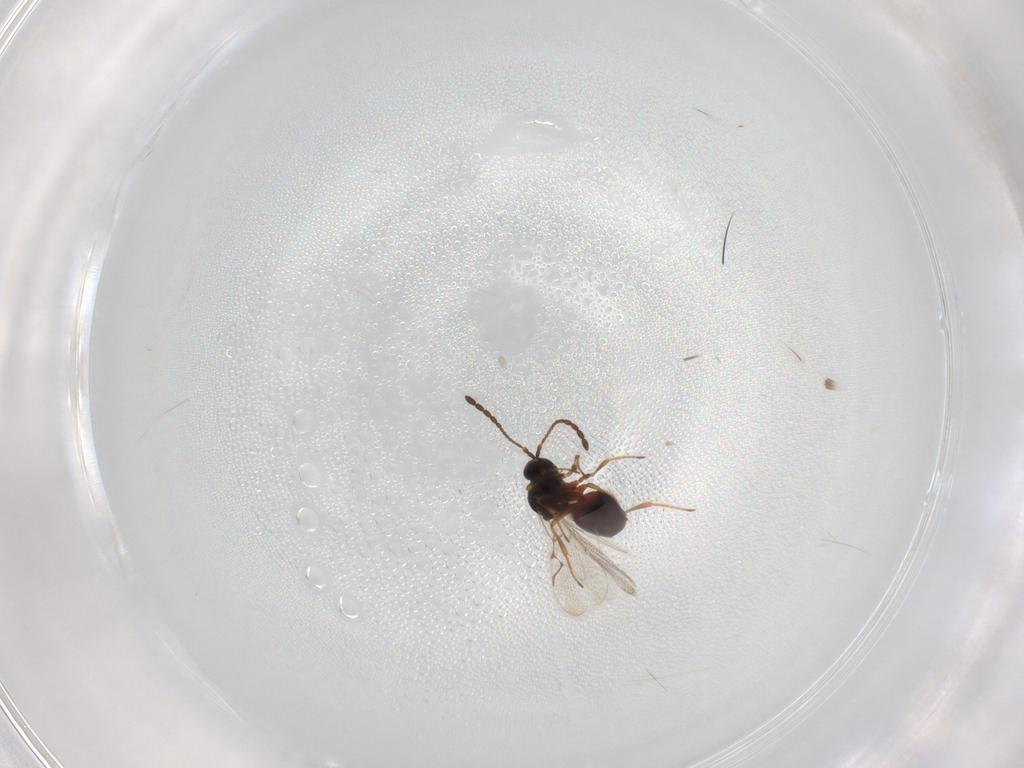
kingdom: Animalia
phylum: Arthropoda
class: Insecta
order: Hymenoptera
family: Figitidae
